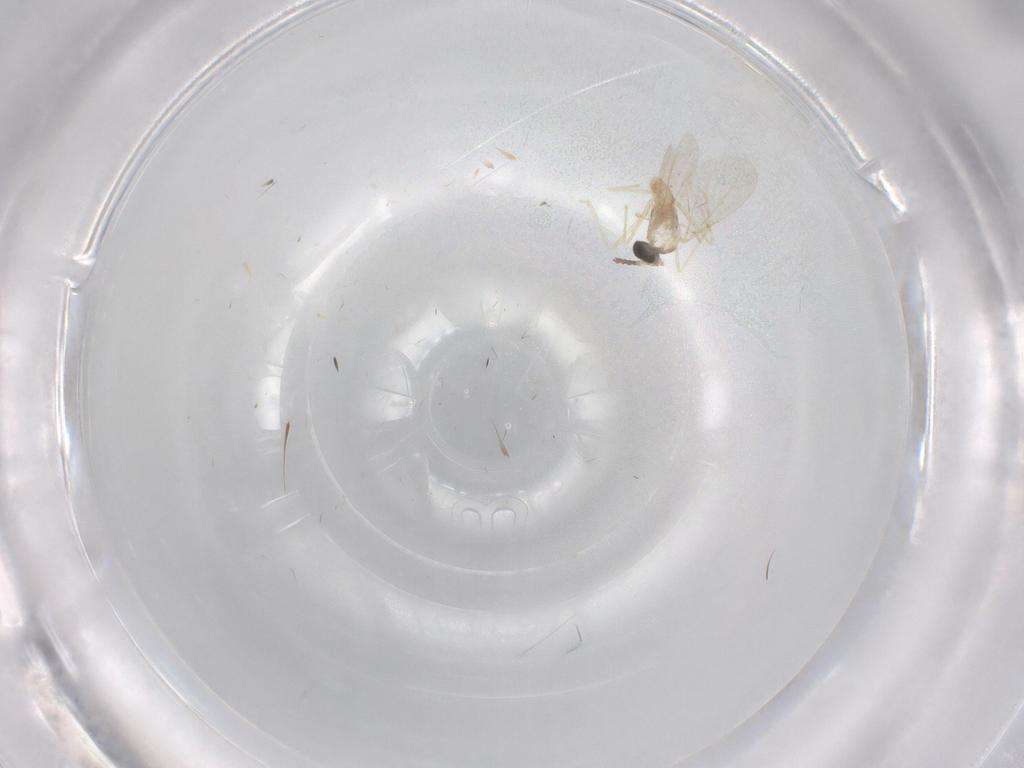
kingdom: Animalia
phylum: Arthropoda
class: Insecta
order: Diptera
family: Cecidomyiidae
